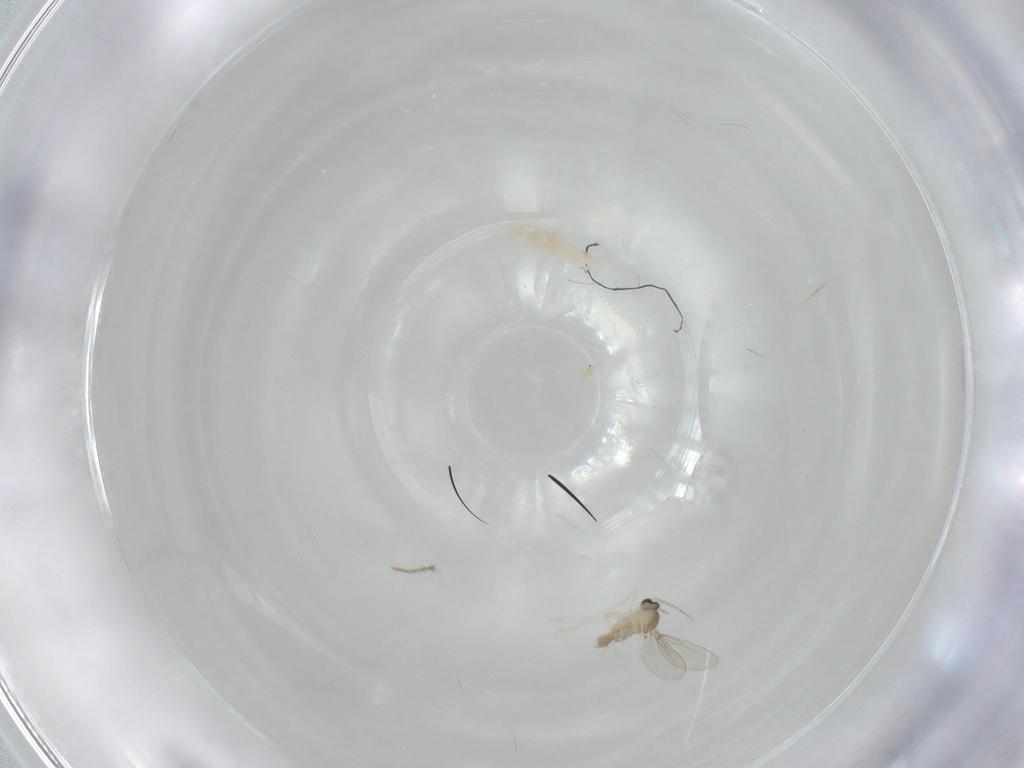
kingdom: Animalia
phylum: Arthropoda
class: Insecta
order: Diptera
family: Cecidomyiidae
